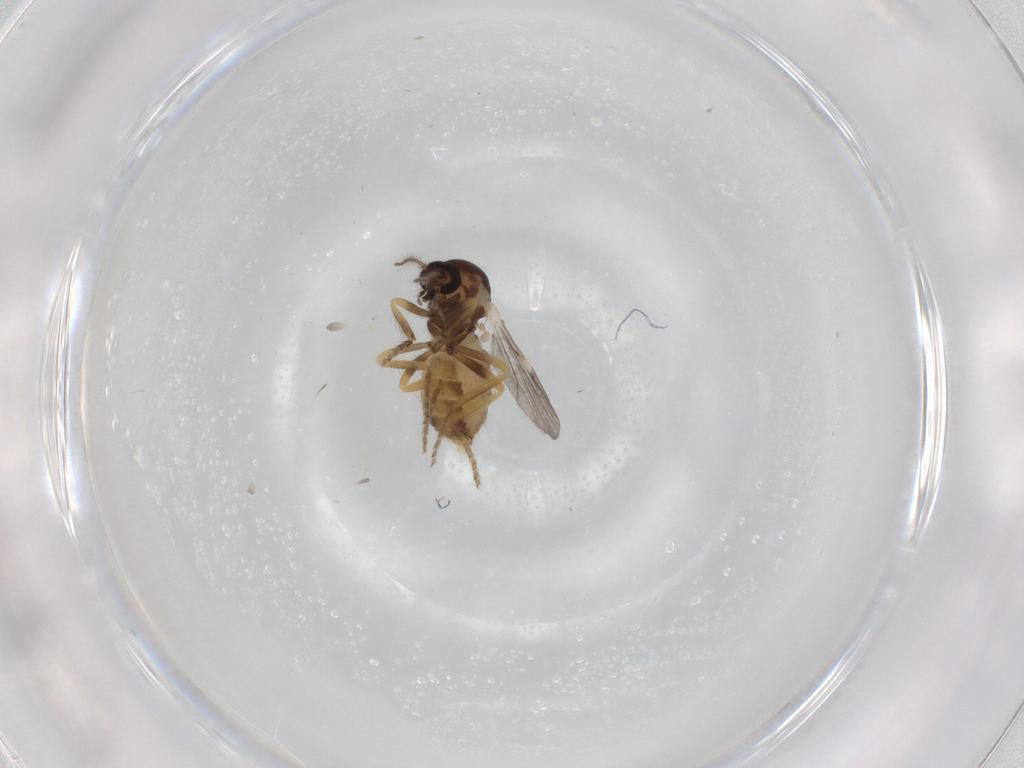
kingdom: Animalia
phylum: Arthropoda
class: Insecta
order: Diptera
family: Ceratopogonidae
